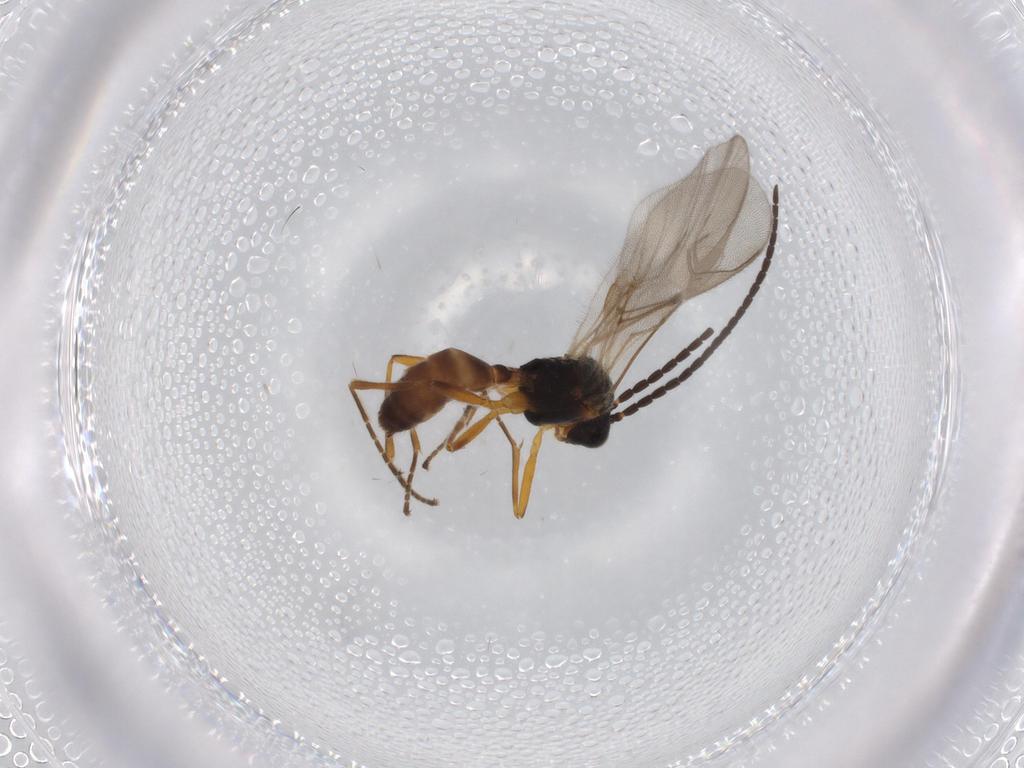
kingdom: Animalia
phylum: Arthropoda
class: Insecta
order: Hymenoptera
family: Braconidae
